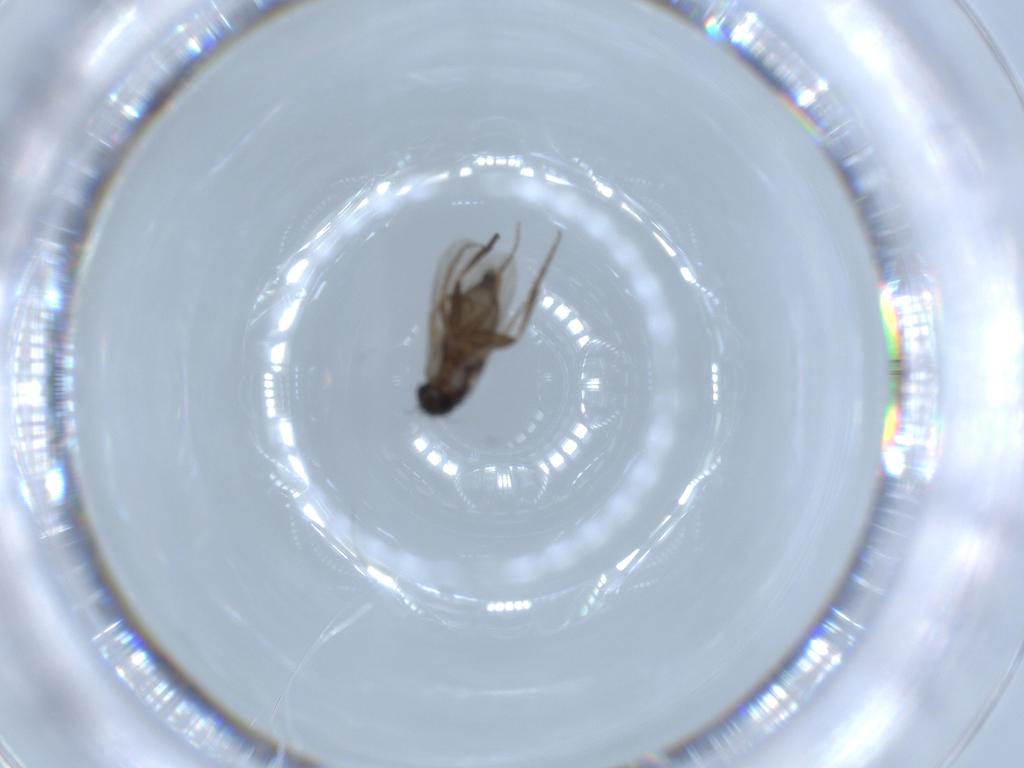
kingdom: Animalia
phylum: Arthropoda
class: Insecta
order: Diptera
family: Phoridae
